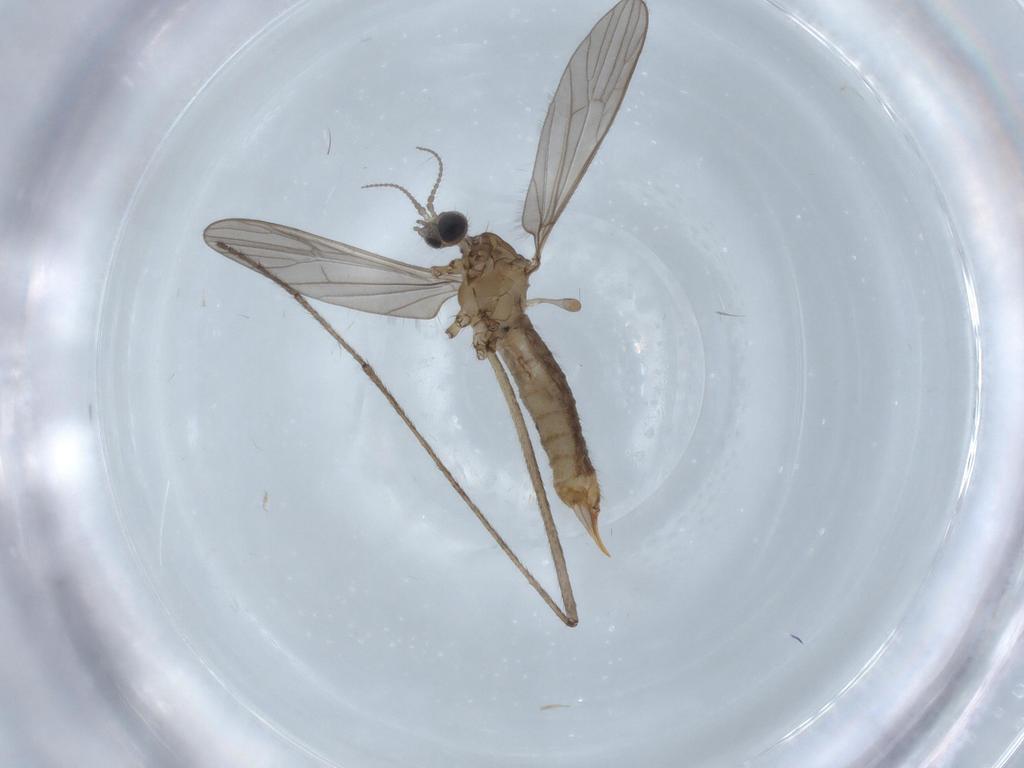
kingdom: Animalia
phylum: Arthropoda
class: Insecta
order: Diptera
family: Limoniidae
